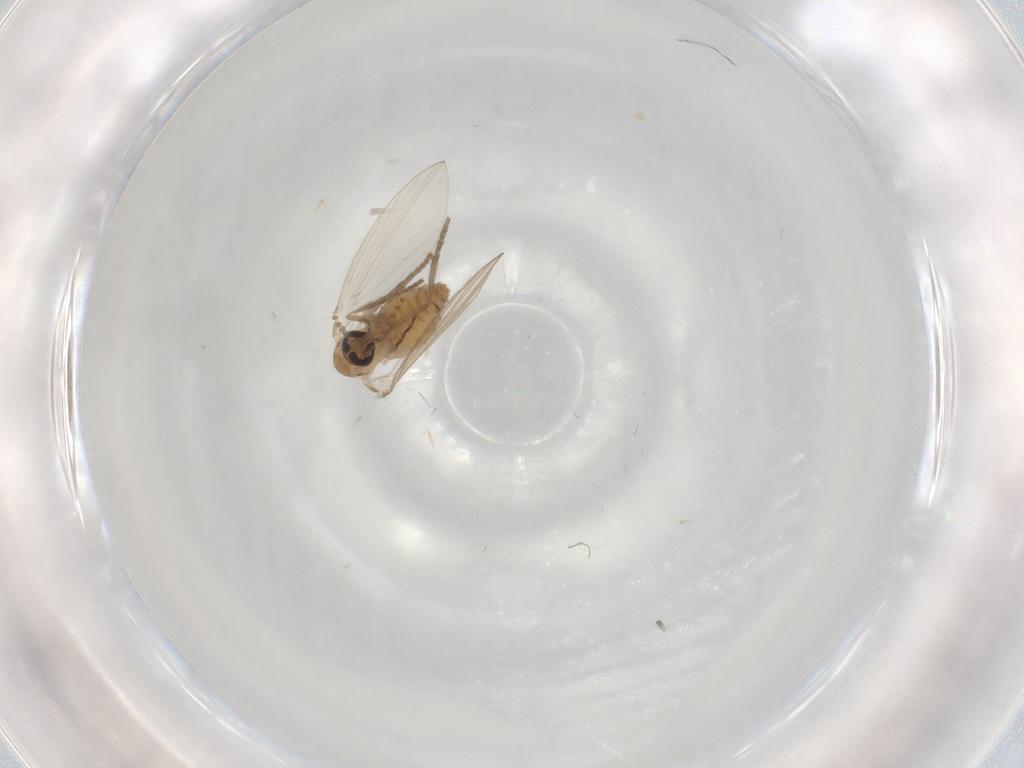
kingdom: Animalia
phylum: Arthropoda
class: Insecta
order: Diptera
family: Psychodidae
